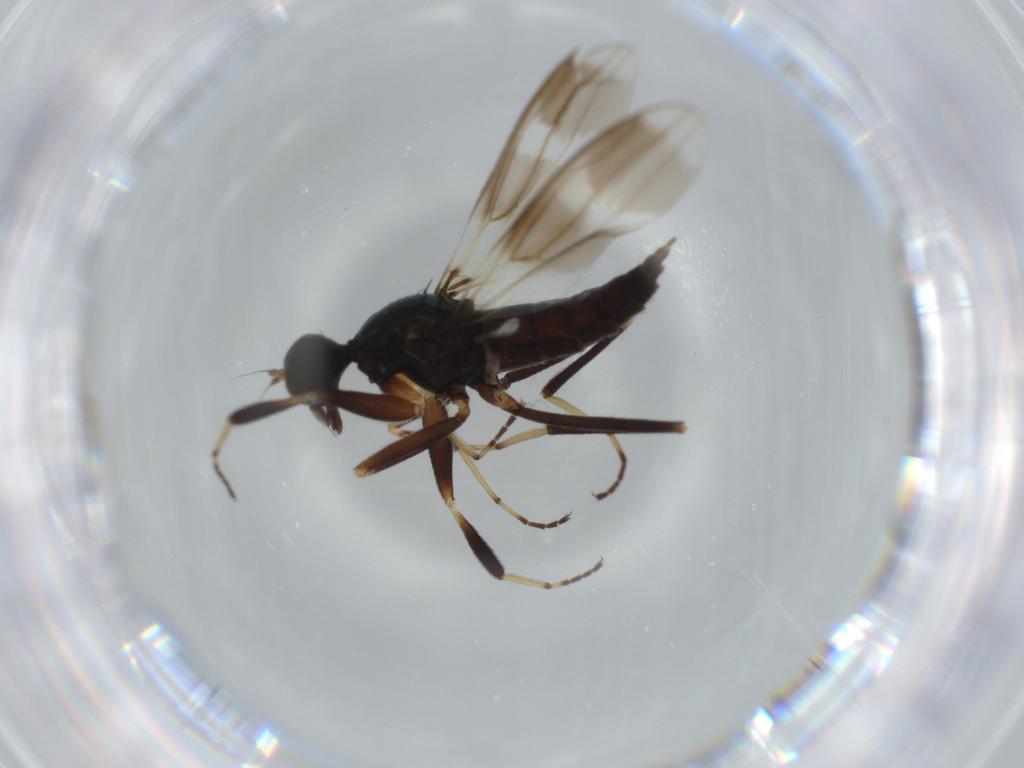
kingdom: Animalia
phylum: Arthropoda
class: Insecta
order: Diptera
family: Hybotidae
